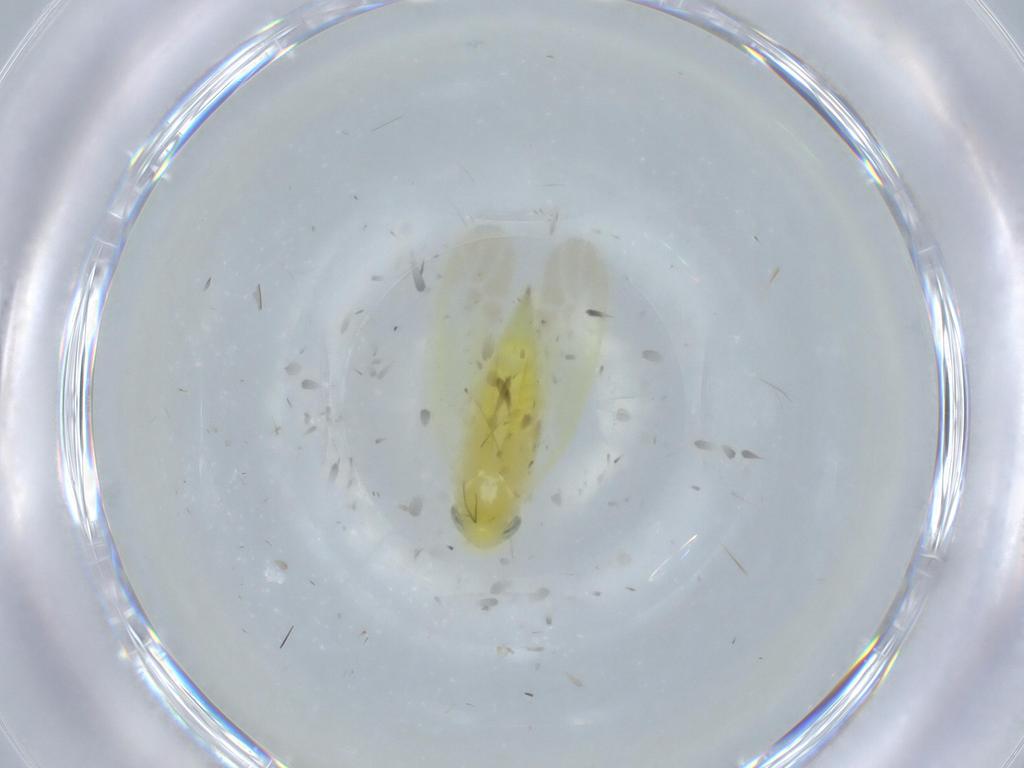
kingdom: Animalia
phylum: Arthropoda
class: Insecta
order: Hemiptera
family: Cicadellidae
